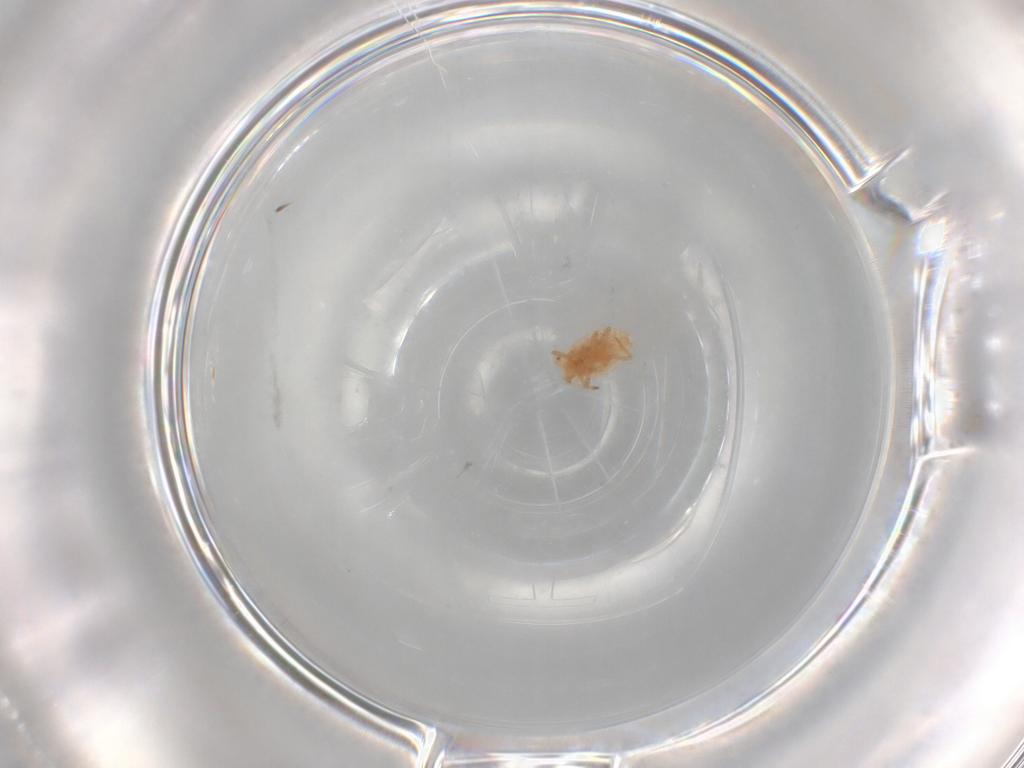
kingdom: Animalia
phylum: Arthropoda
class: Insecta
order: Hemiptera
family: Coccoidea_incertae_sedis
